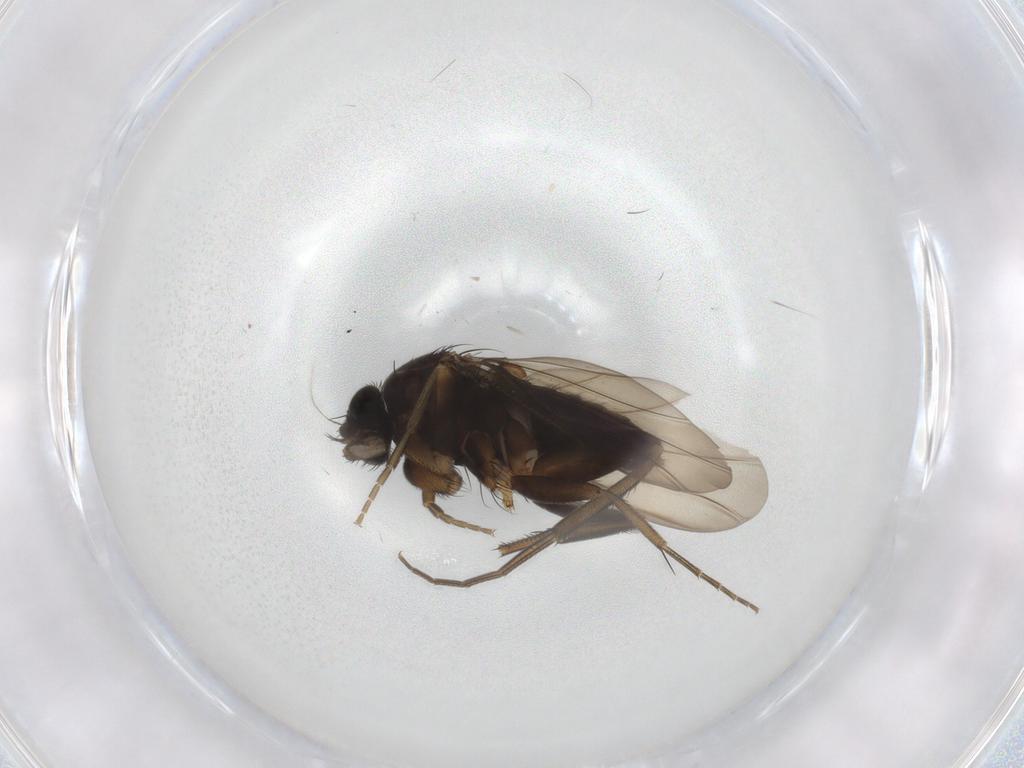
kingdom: Animalia
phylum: Arthropoda
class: Insecta
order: Diptera
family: Phoridae
